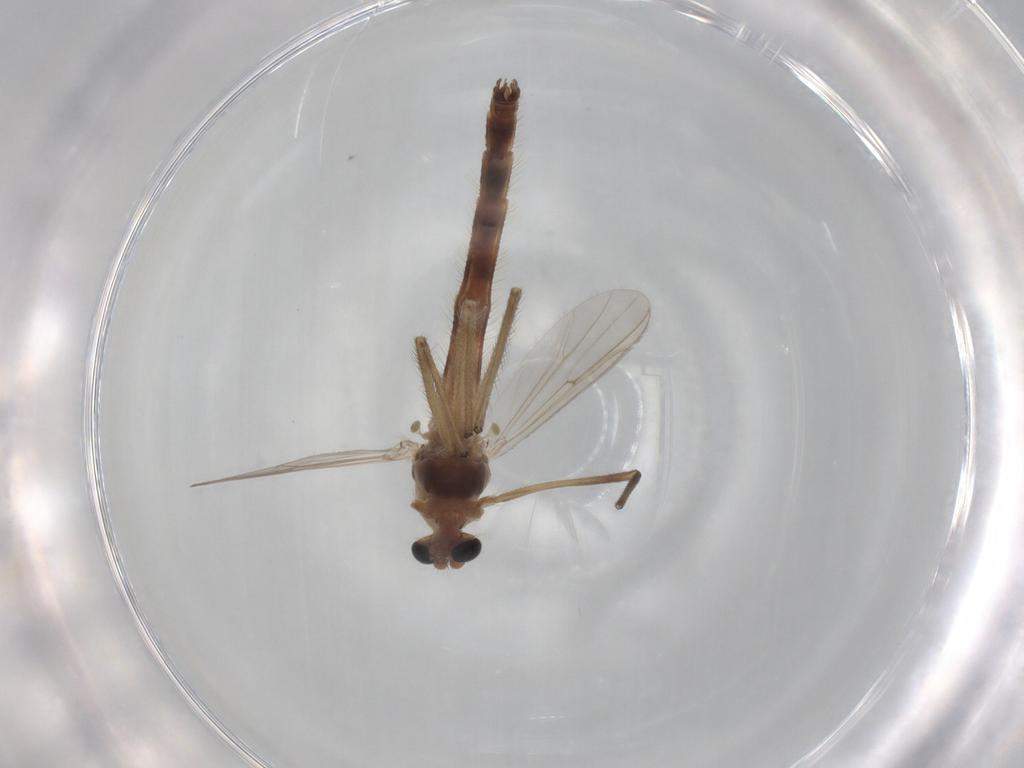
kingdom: Animalia
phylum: Arthropoda
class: Insecta
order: Diptera
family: Chironomidae
